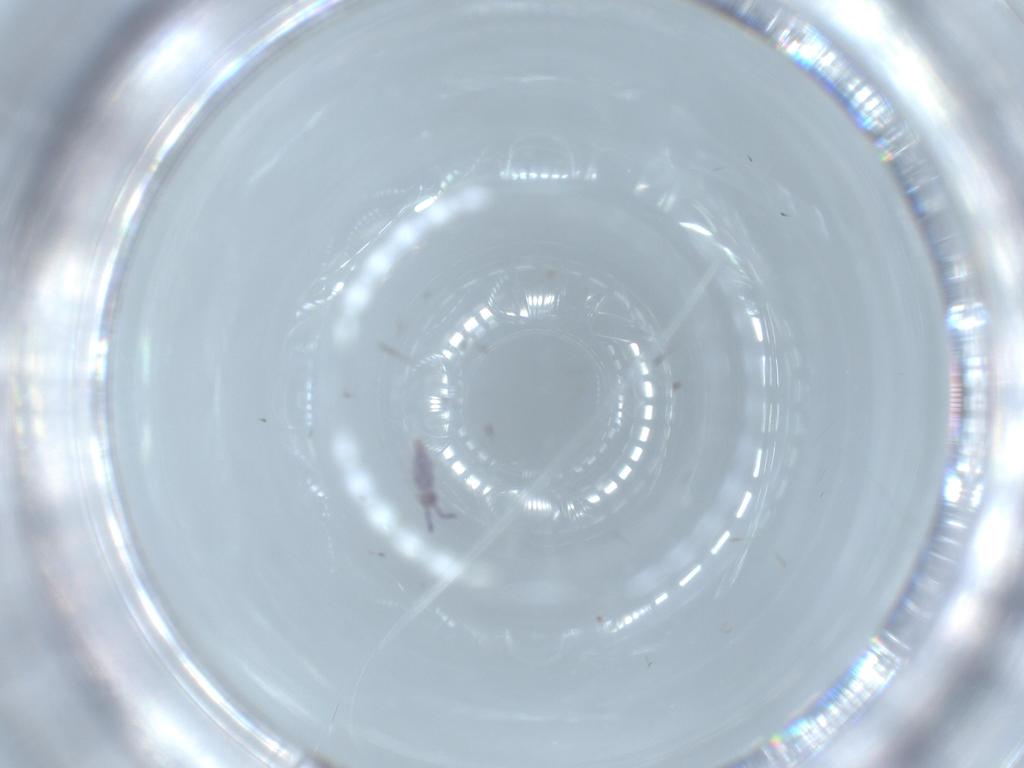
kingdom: Animalia
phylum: Arthropoda
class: Collembola
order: Entomobryomorpha
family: Entomobryidae
